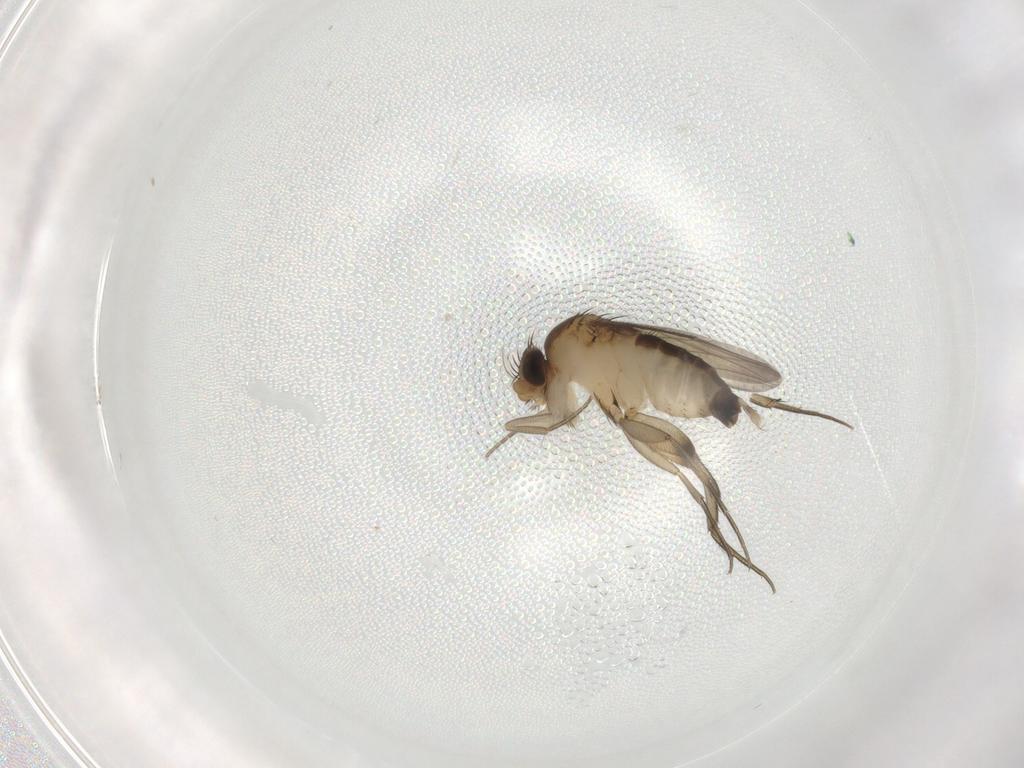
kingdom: Animalia
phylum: Arthropoda
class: Insecta
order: Diptera
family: Phoridae
